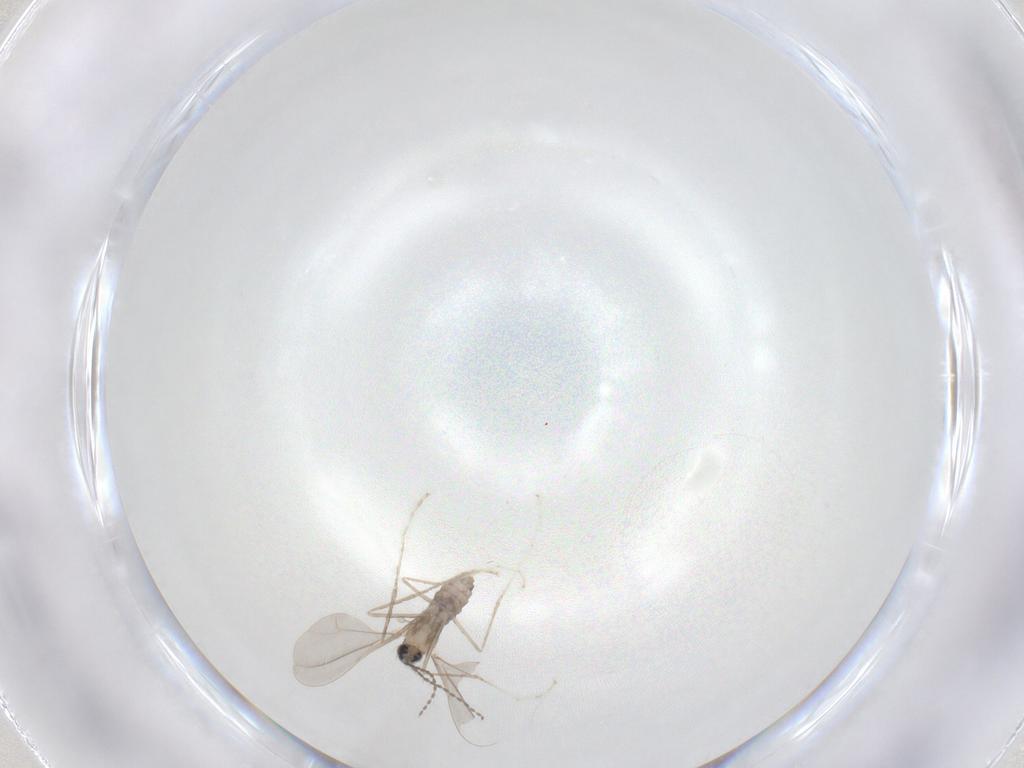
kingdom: Animalia
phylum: Arthropoda
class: Insecta
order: Diptera
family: Cecidomyiidae
